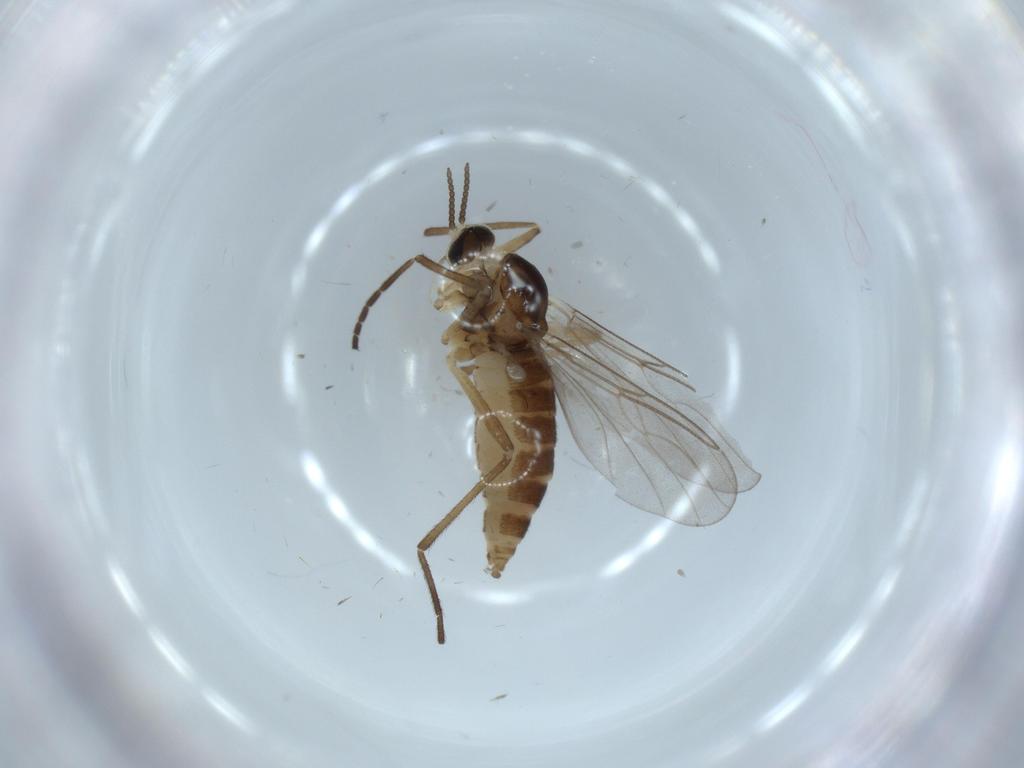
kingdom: Animalia
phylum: Arthropoda
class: Insecta
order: Diptera
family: Cecidomyiidae
